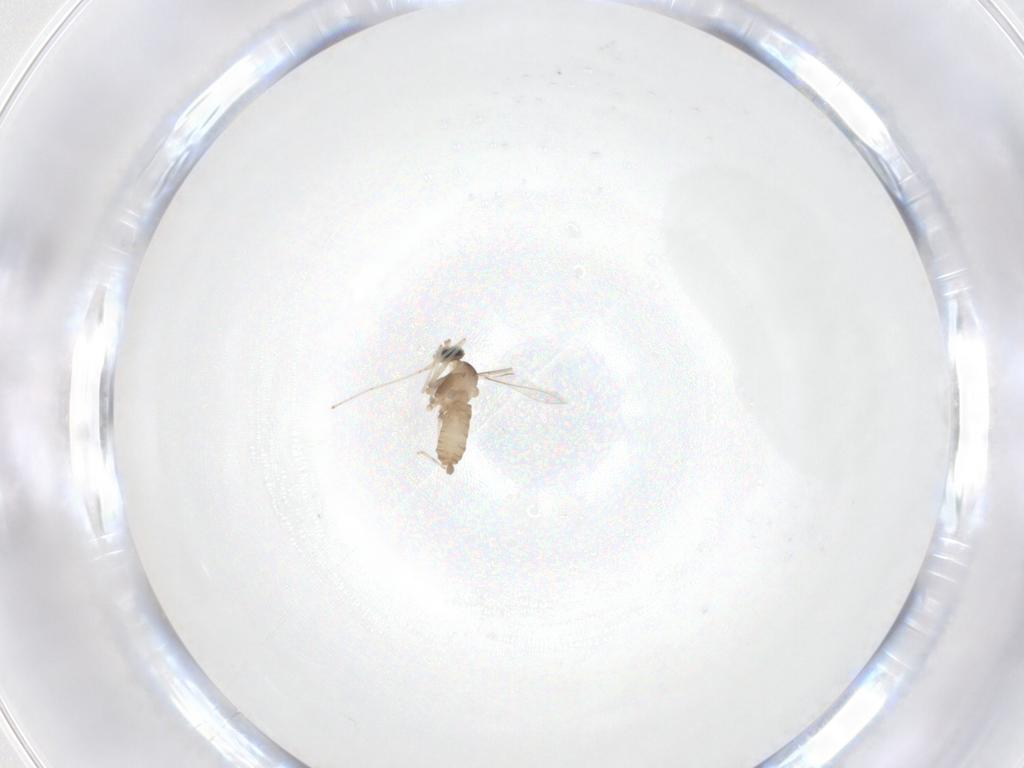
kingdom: Animalia
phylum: Arthropoda
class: Insecta
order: Diptera
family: Cecidomyiidae
